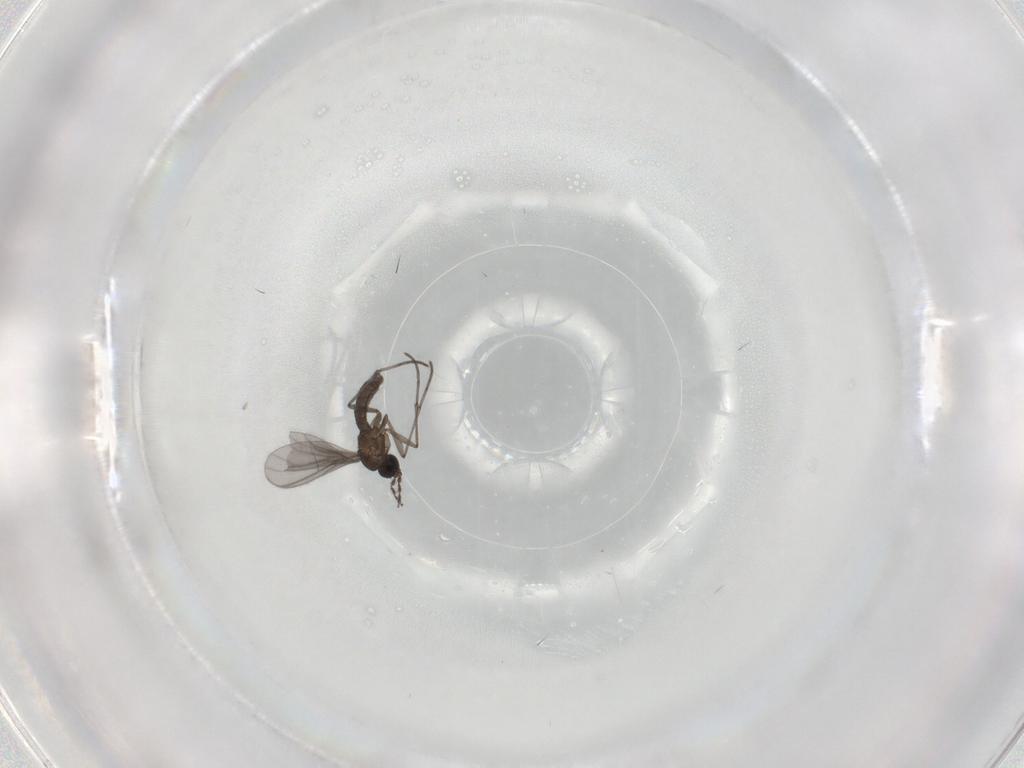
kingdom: Animalia
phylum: Arthropoda
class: Insecta
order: Diptera
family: Sciaridae
